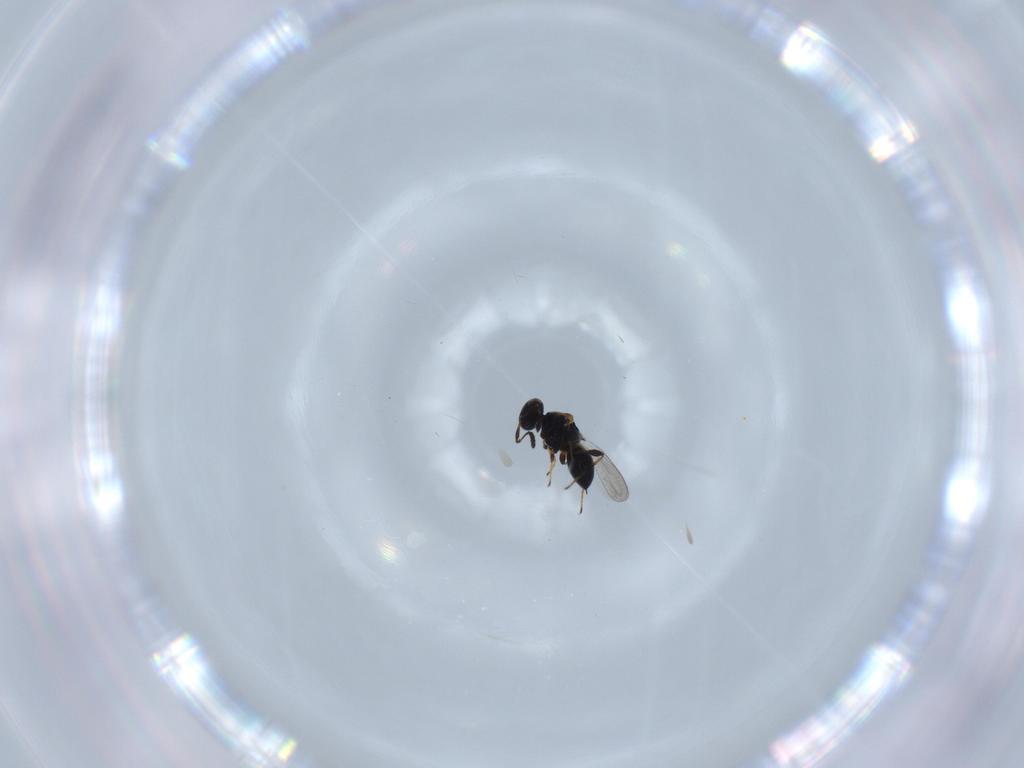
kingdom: Animalia
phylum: Arthropoda
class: Insecta
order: Hymenoptera
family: Platygastridae
